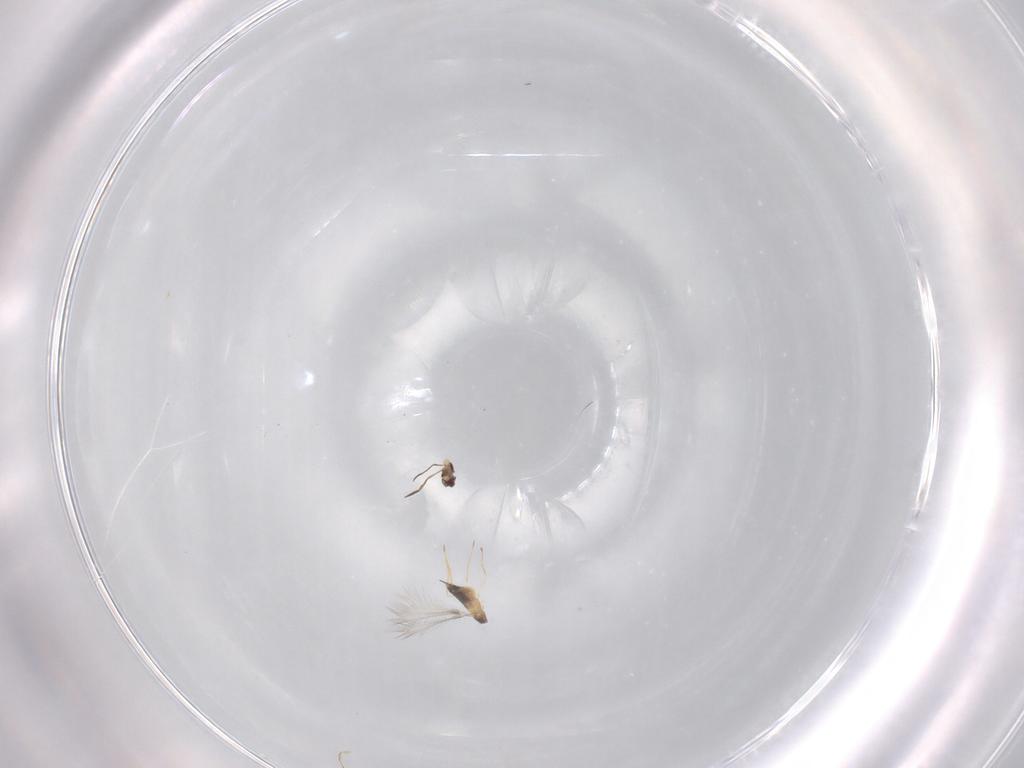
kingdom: Animalia
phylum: Arthropoda
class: Insecta
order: Hymenoptera
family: Mymaridae
